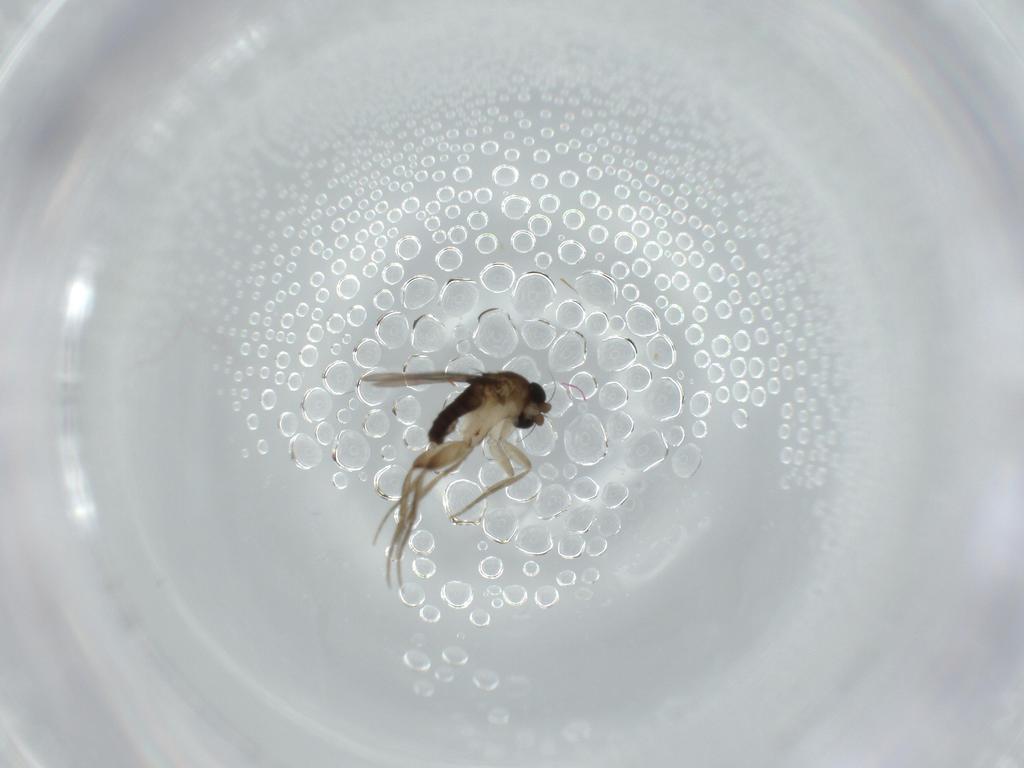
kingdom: Animalia
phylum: Arthropoda
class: Insecta
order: Diptera
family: Phoridae
